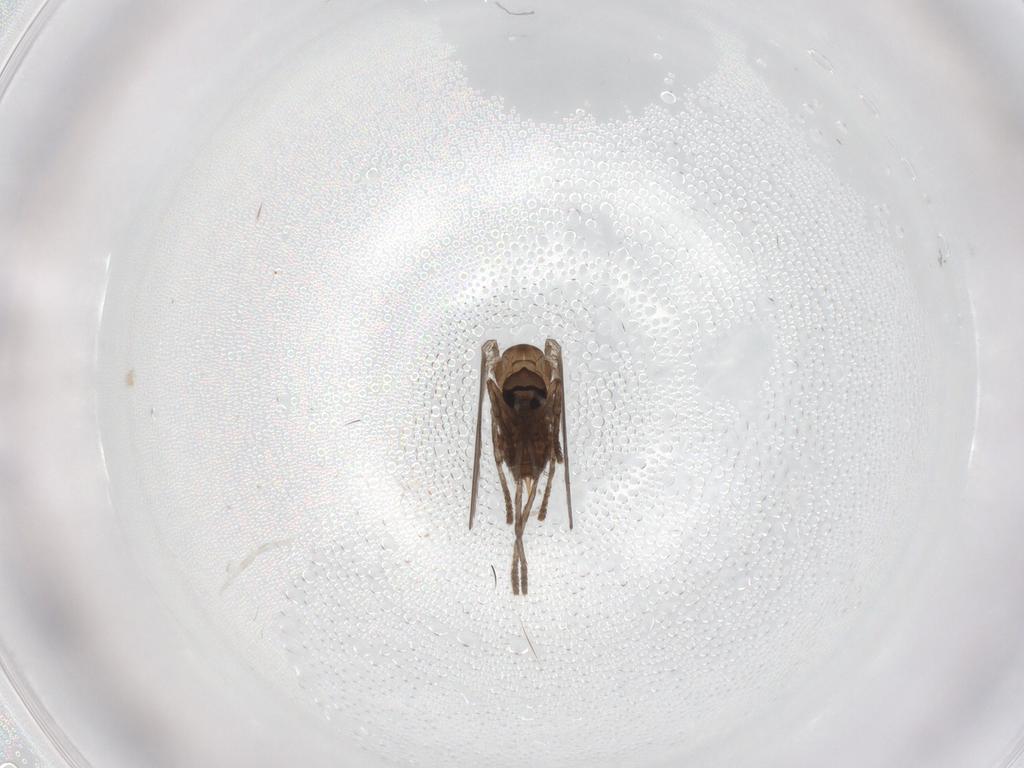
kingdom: Animalia
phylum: Arthropoda
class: Insecta
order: Diptera
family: Psychodidae
